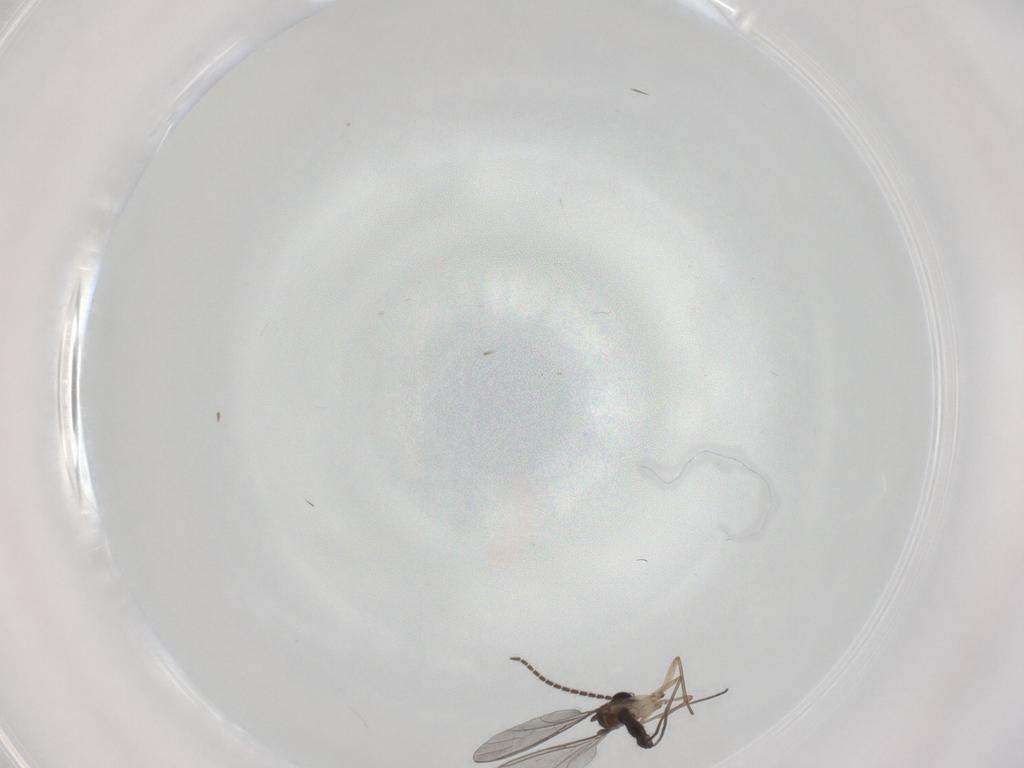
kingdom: Animalia
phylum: Arthropoda
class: Insecta
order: Diptera
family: Sciaridae
